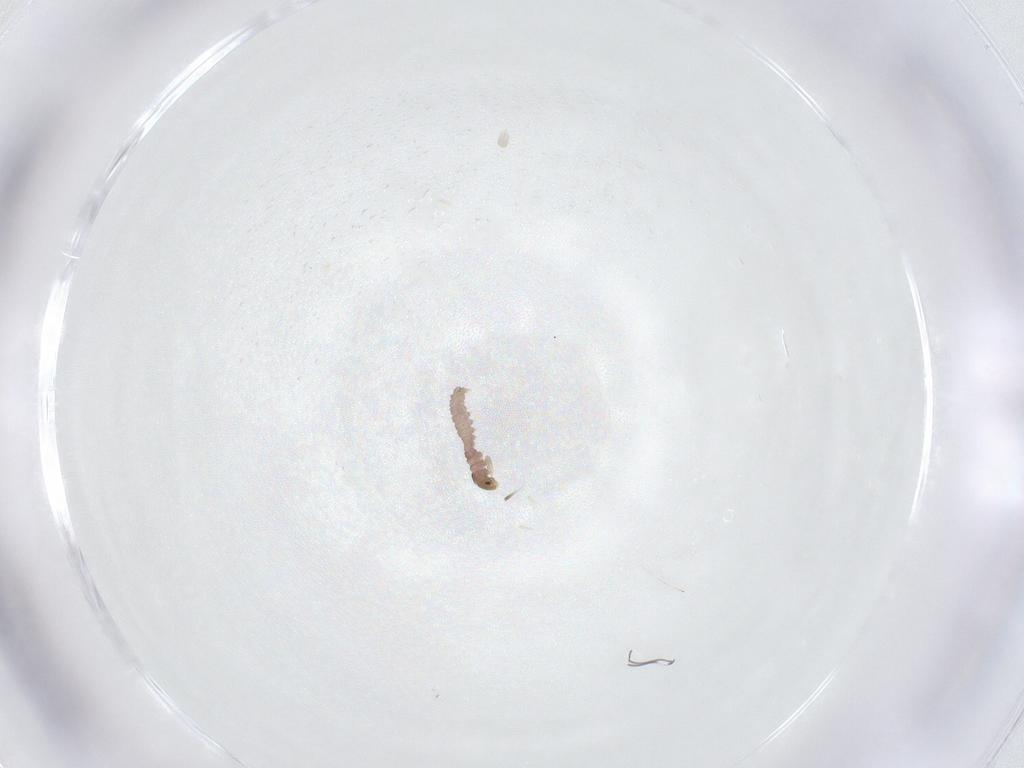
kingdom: Animalia
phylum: Arthropoda
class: Insecta
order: Lepidoptera
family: Gelechiidae
